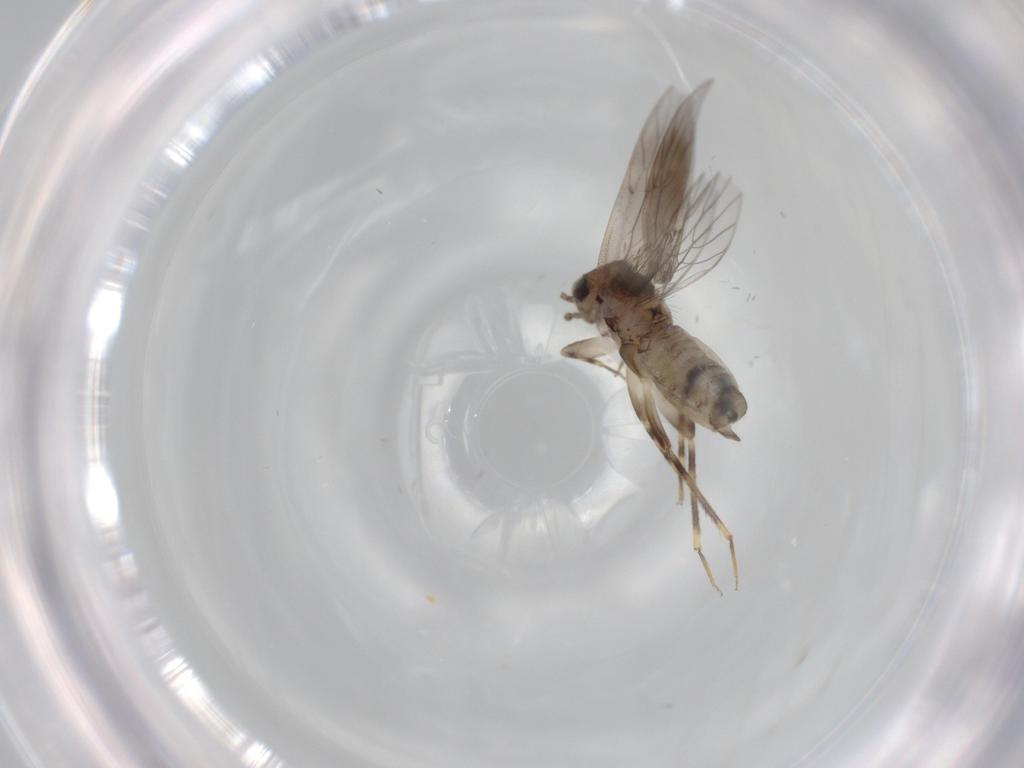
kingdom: Animalia
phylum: Arthropoda
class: Insecta
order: Psocodea
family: Lepidopsocidae
